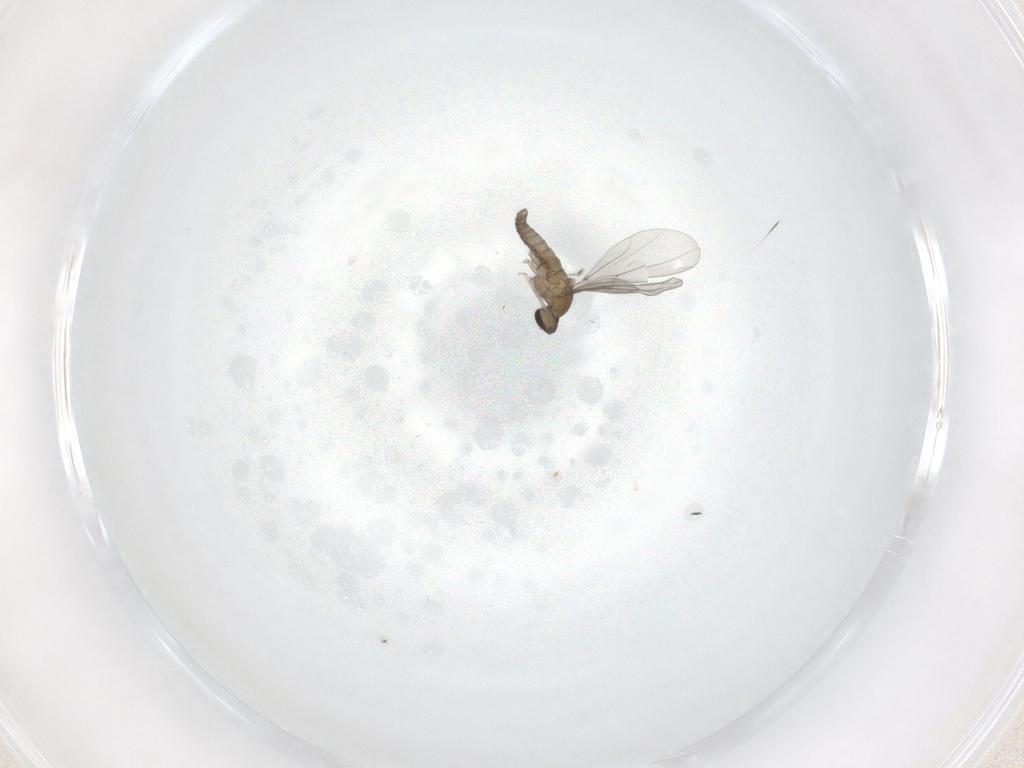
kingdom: Animalia
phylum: Arthropoda
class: Insecta
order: Diptera
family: Cecidomyiidae
